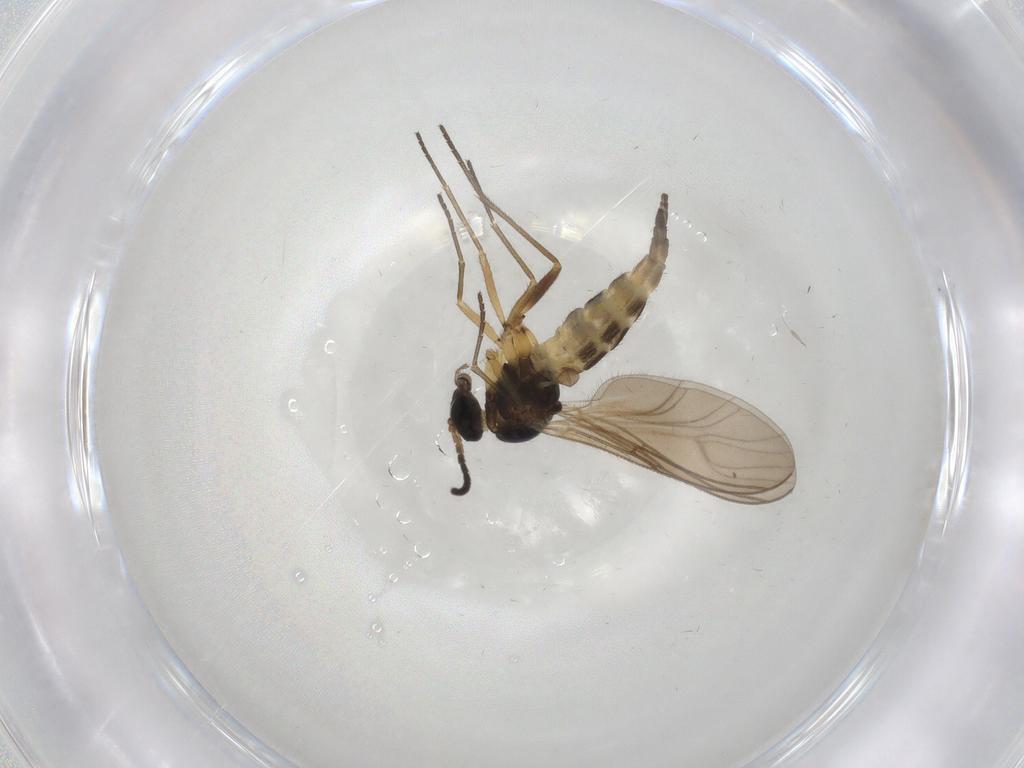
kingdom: Animalia
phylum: Arthropoda
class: Insecta
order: Diptera
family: Sciaridae
